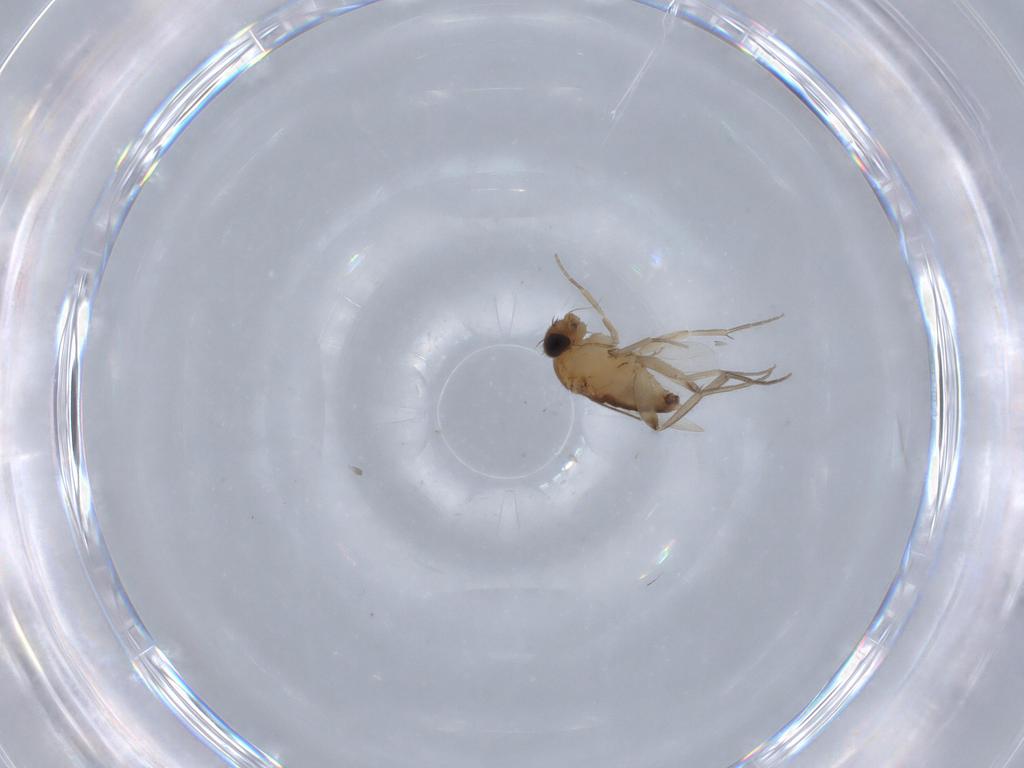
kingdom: Animalia
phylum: Arthropoda
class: Insecta
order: Diptera
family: Phoridae
